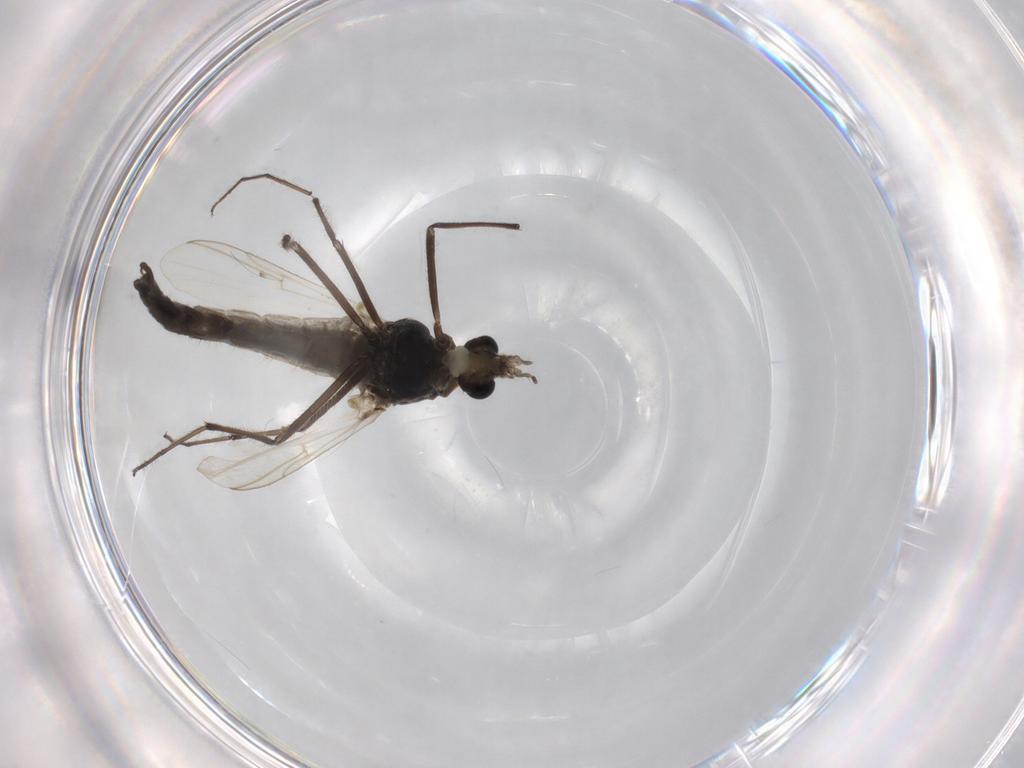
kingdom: Animalia
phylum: Arthropoda
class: Insecta
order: Diptera
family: Chironomidae
